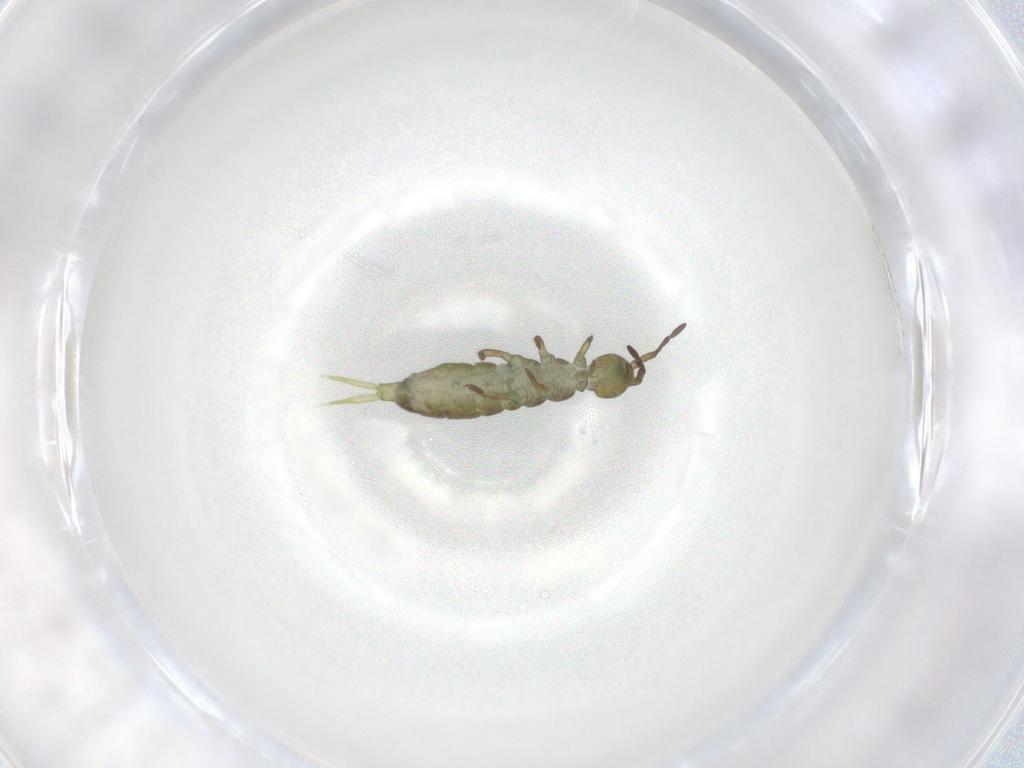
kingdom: Animalia
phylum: Arthropoda
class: Collembola
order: Entomobryomorpha
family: Isotomidae
